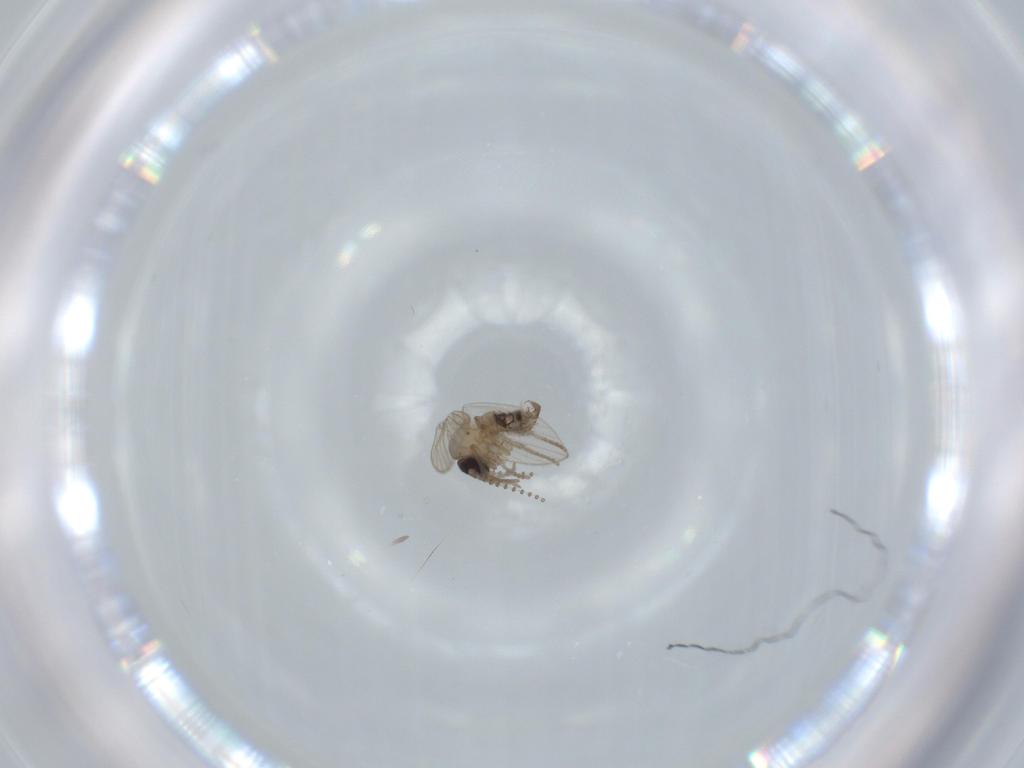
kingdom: Animalia
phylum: Arthropoda
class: Insecta
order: Diptera
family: Psychodidae
